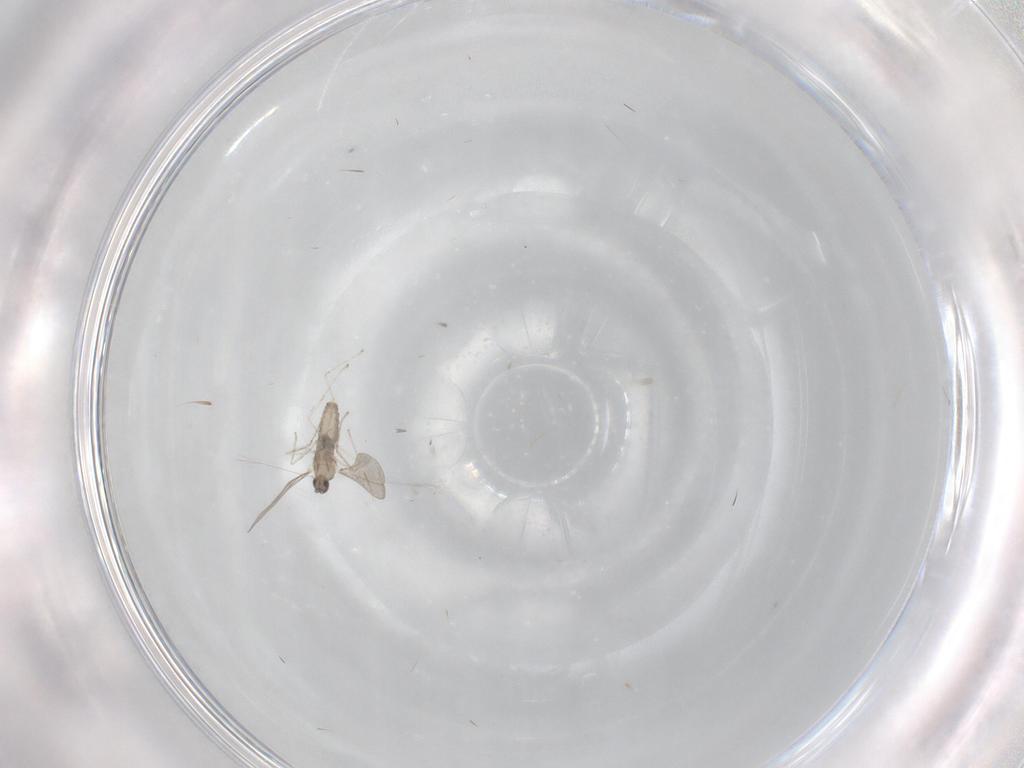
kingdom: Animalia
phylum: Arthropoda
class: Insecta
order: Diptera
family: Cecidomyiidae
